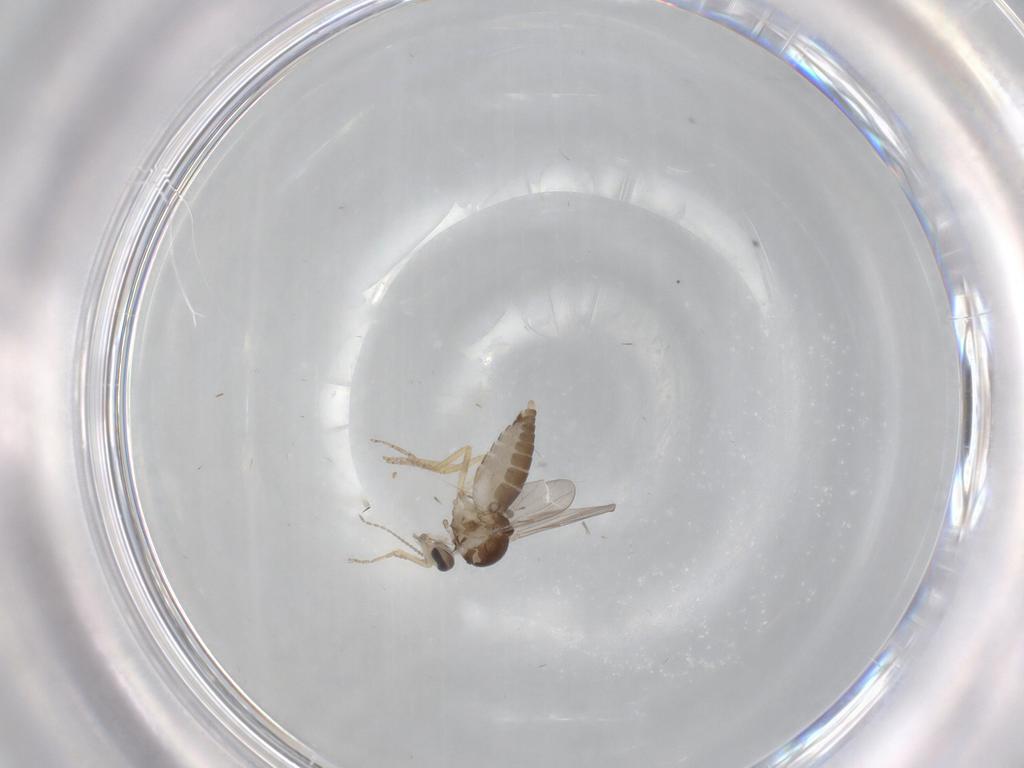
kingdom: Animalia
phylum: Arthropoda
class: Insecta
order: Diptera
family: Ceratopogonidae
